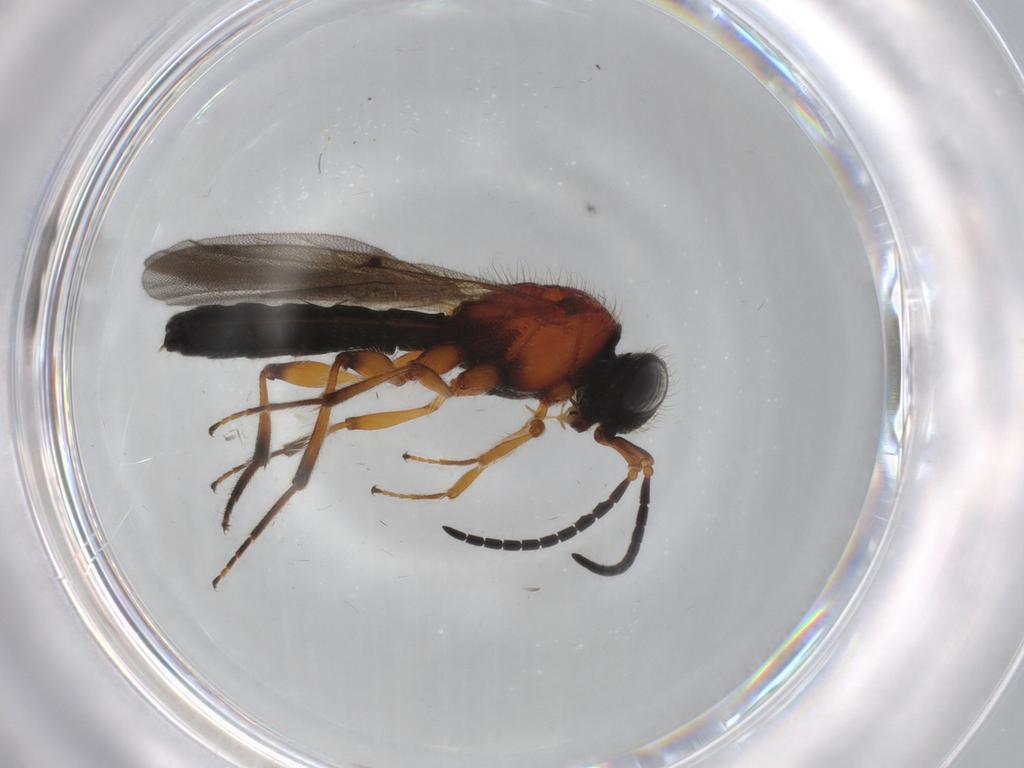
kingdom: Animalia
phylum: Arthropoda
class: Insecta
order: Hymenoptera
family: Scelionidae
